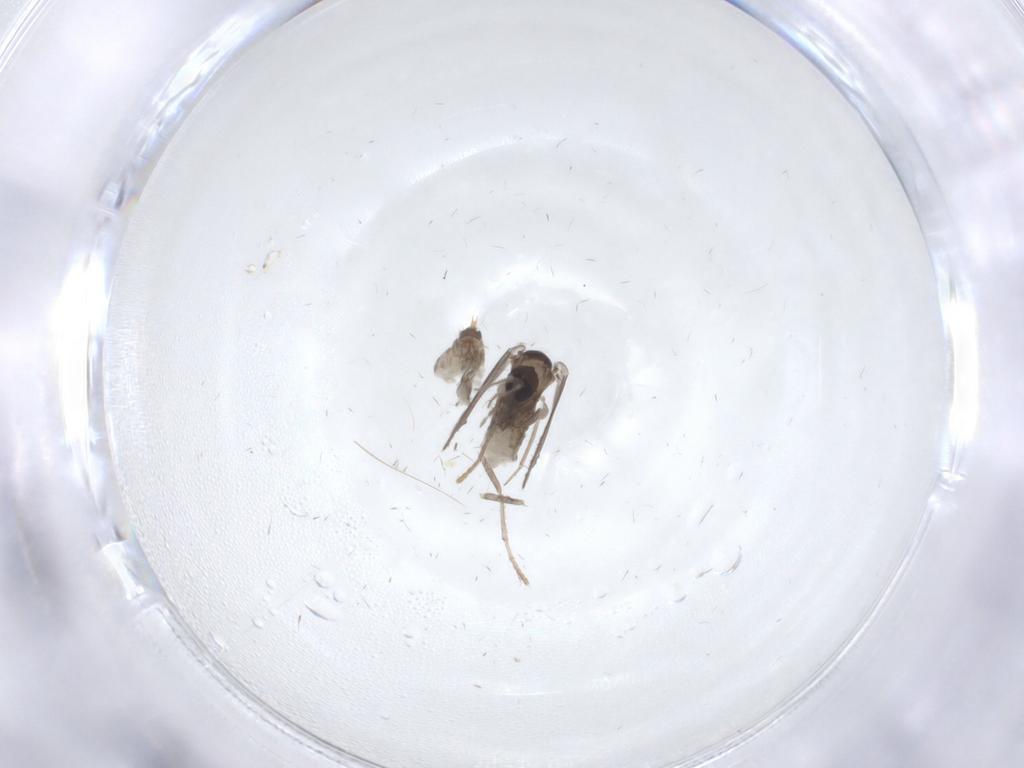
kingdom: Animalia
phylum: Arthropoda
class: Insecta
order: Diptera
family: Psychodidae
